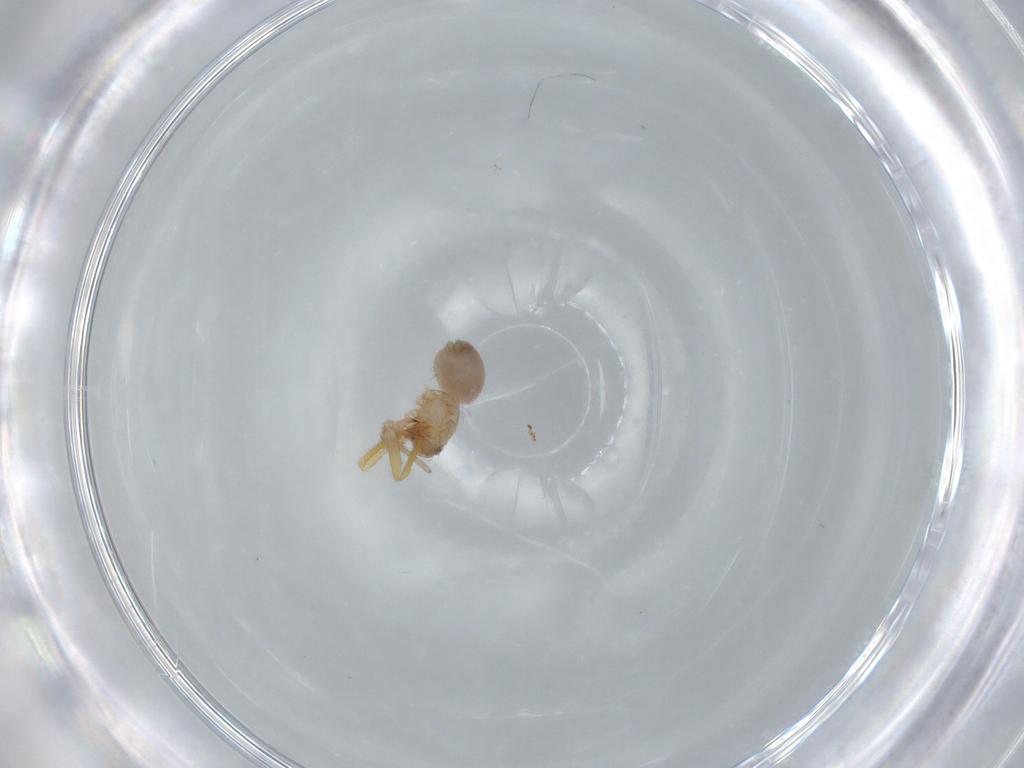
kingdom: Animalia
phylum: Arthropoda
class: Arachnida
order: Araneae
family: Oonopidae
